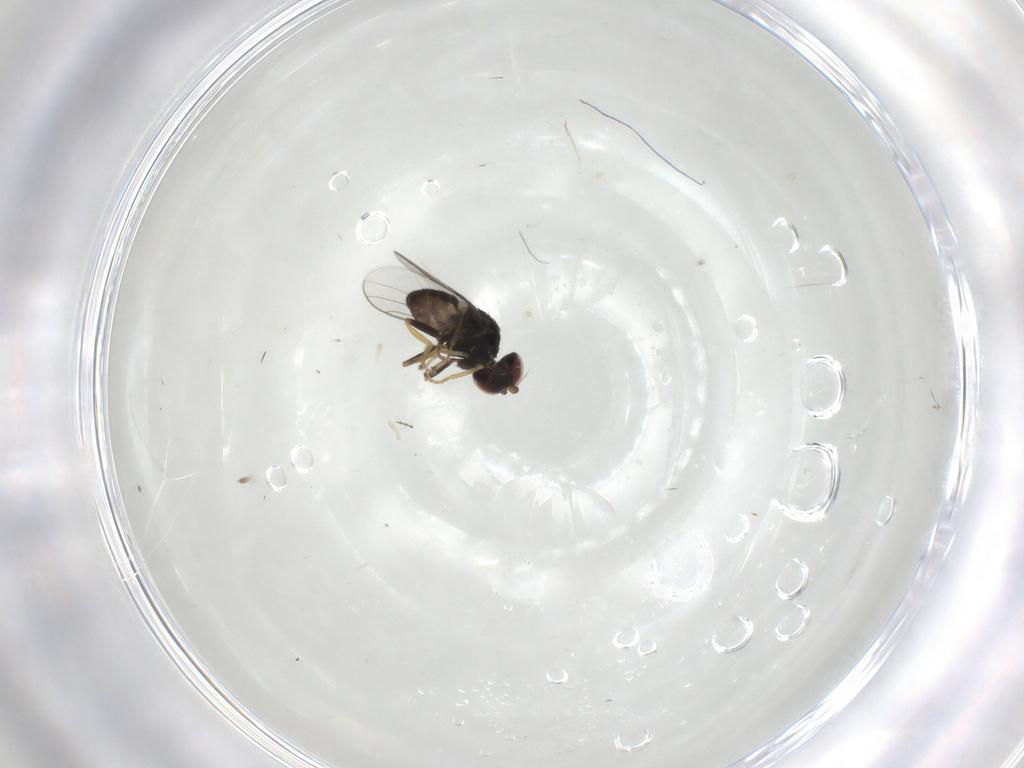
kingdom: Animalia
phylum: Arthropoda
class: Insecta
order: Diptera
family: Chloropidae
